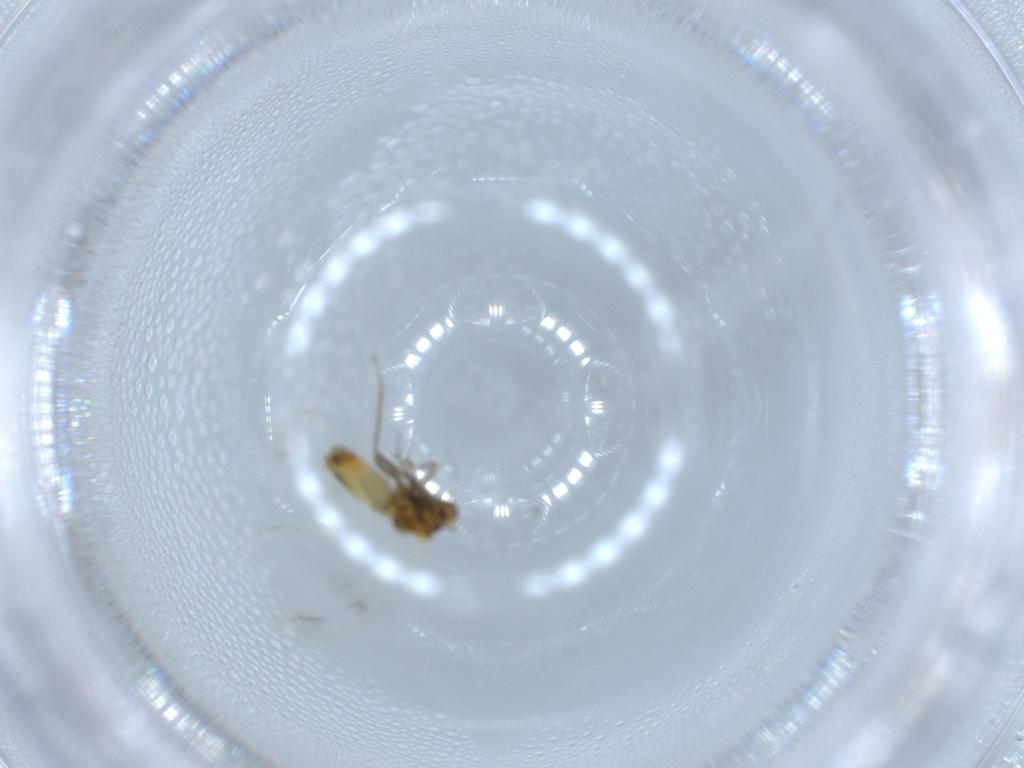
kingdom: Animalia
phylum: Arthropoda
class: Insecta
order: Hemiptera
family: Aleyrodidae
